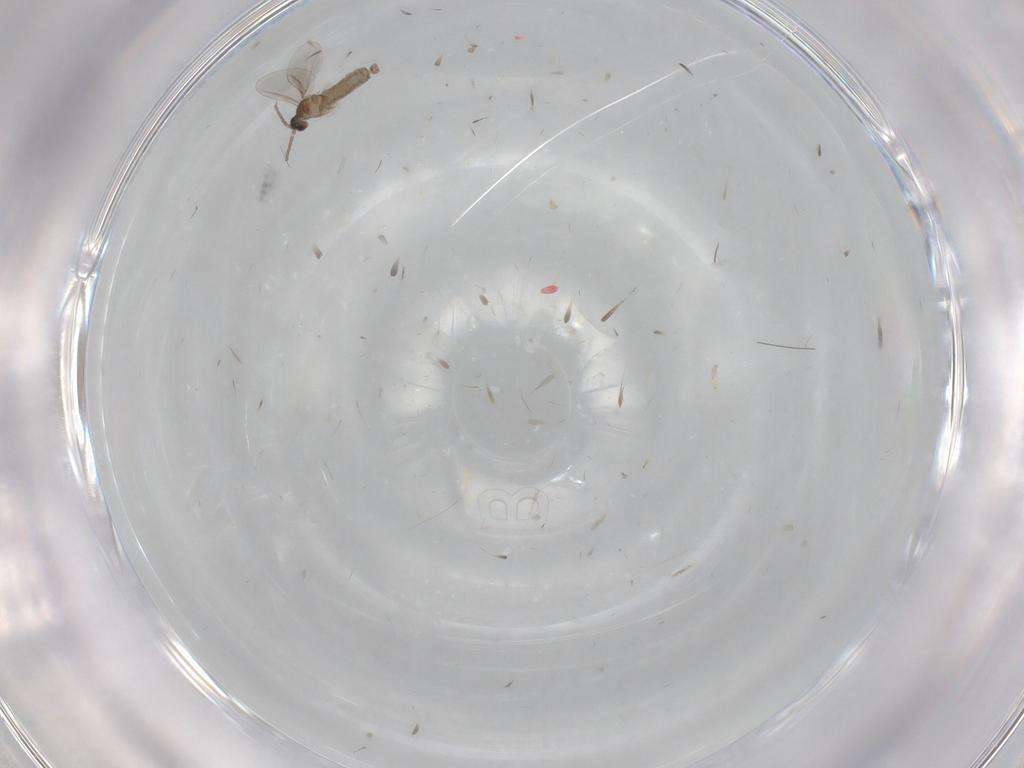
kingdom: Animalia
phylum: Arthropoda
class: Insecta
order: Diptera
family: Cecidomyiidae
